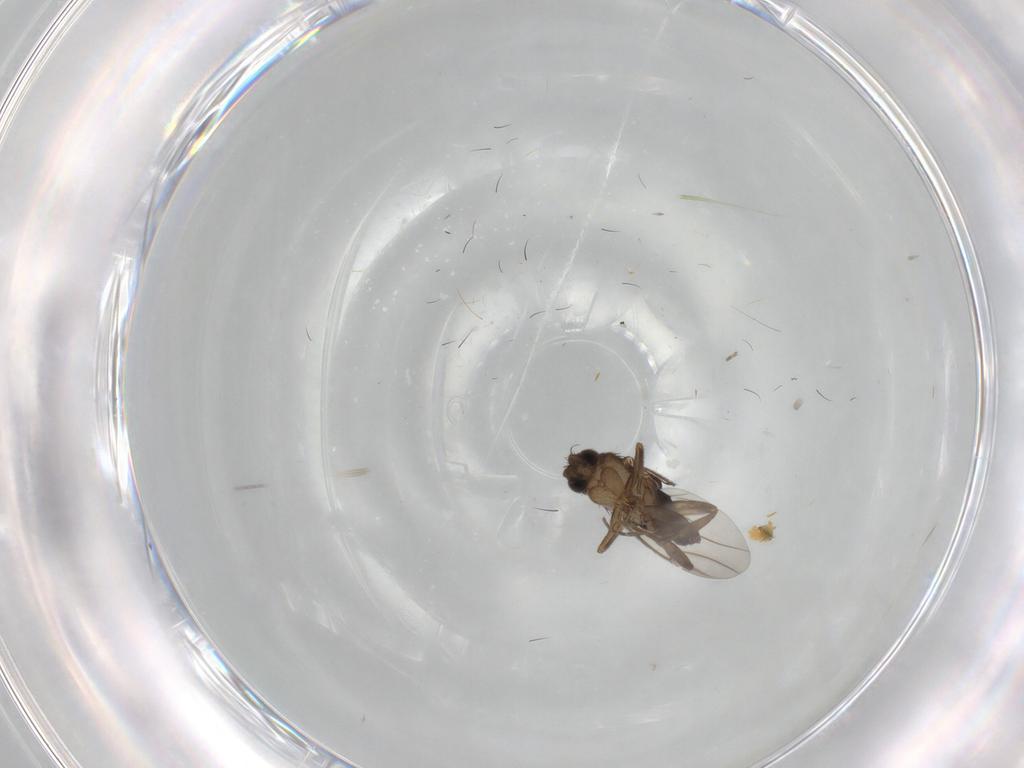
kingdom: Animalia
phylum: Arthropoda
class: Insecta
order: Diptera
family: Phoridae
